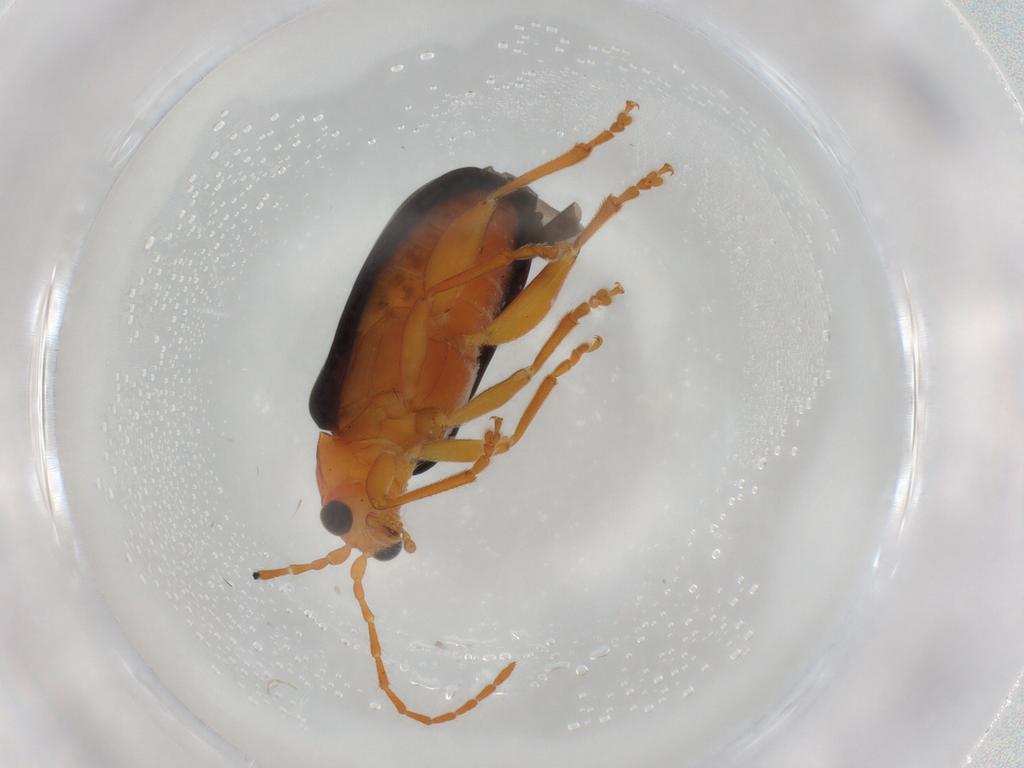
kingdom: Animalia
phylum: Arthropoda
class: Insecta
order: Coleoptera
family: Chrysomelidae
